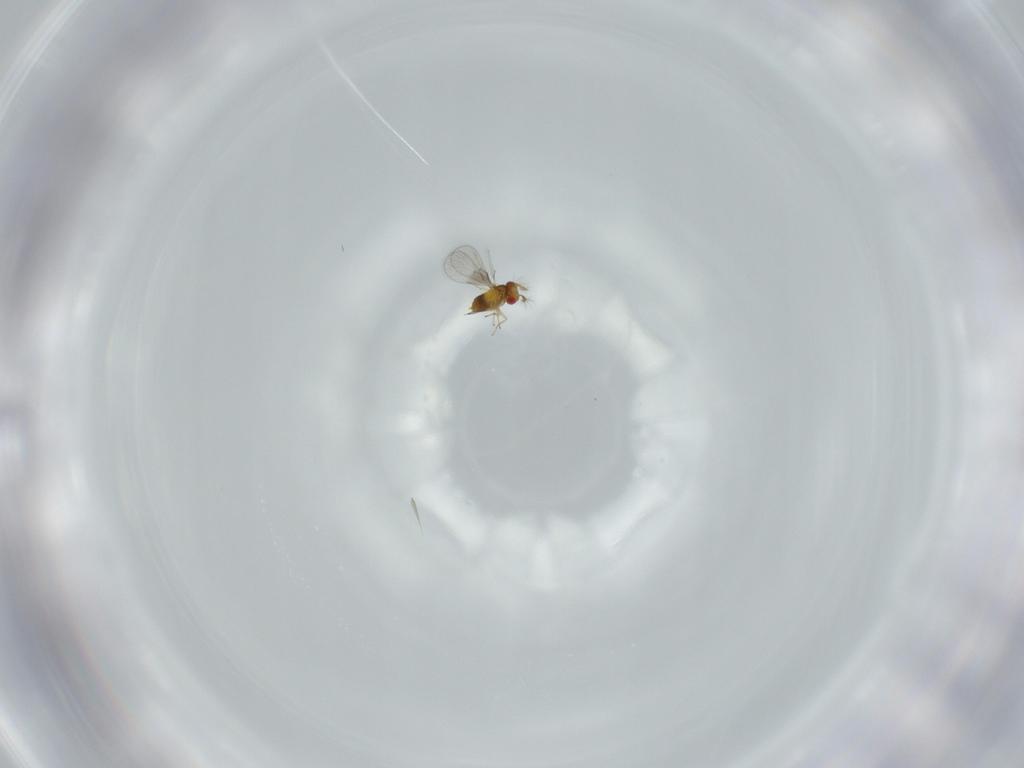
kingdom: Animalia
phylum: Arthropoda
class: Insecta
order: Hymenoptera
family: Trichogrammatidae
